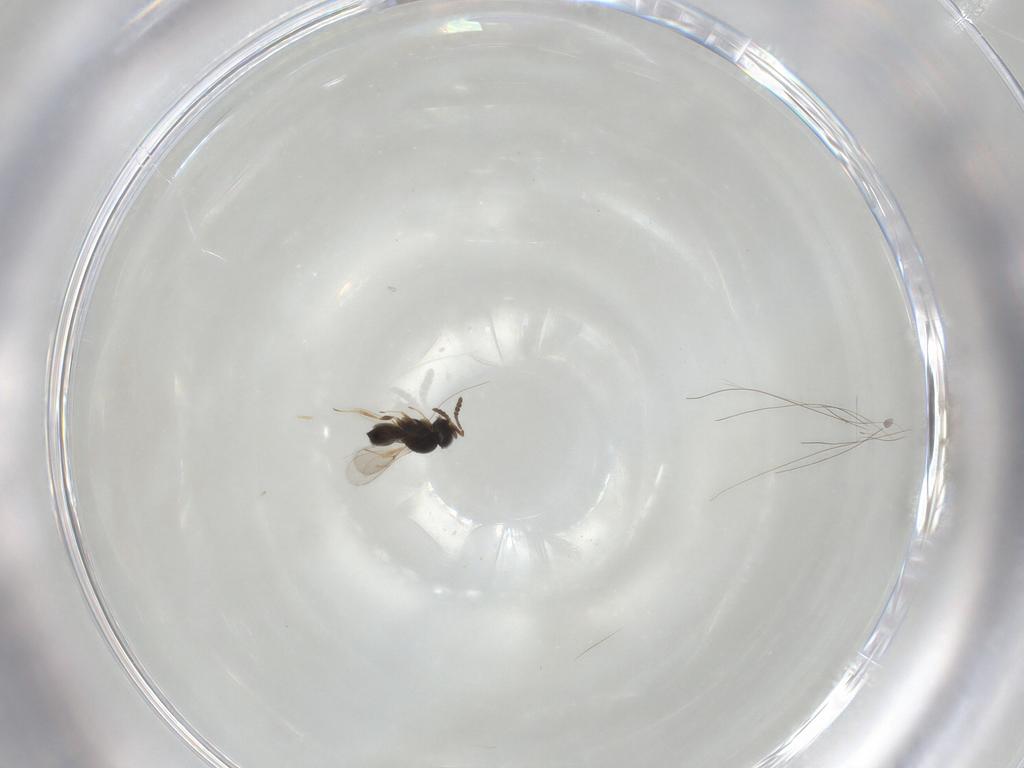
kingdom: Animalia
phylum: Arthropoda
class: Insecta
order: Hymenoptera
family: Scelionidae
